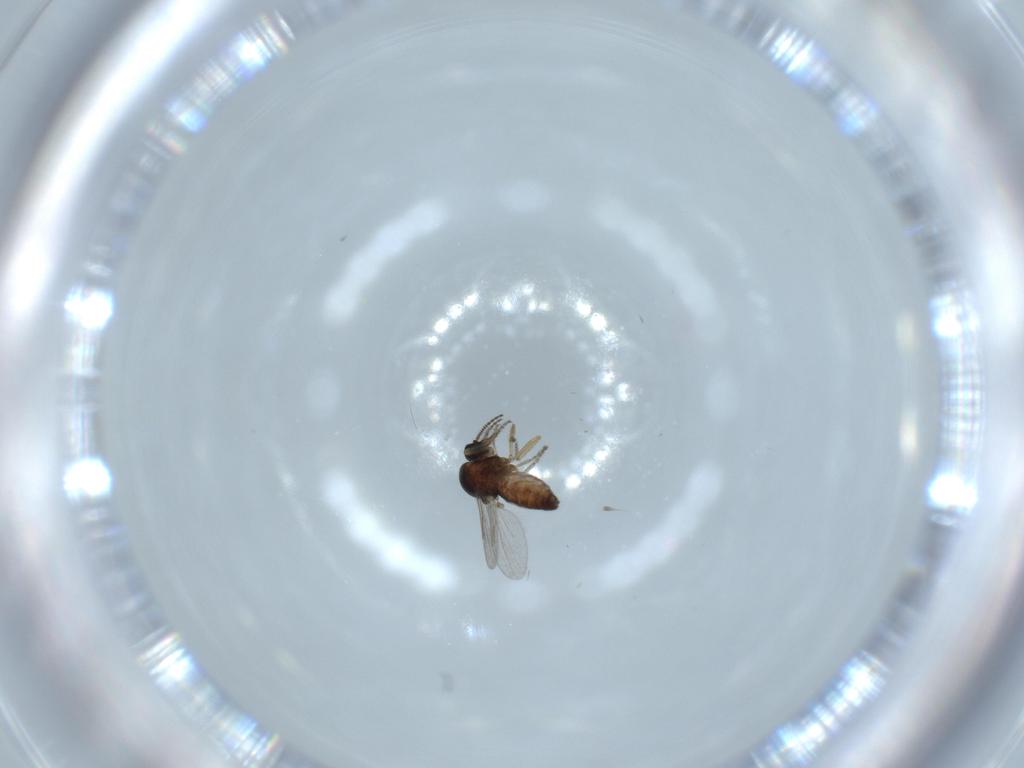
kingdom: Animalia
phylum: Arthropoda
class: Insecta
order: Diptera
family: Ceratopogonidae
